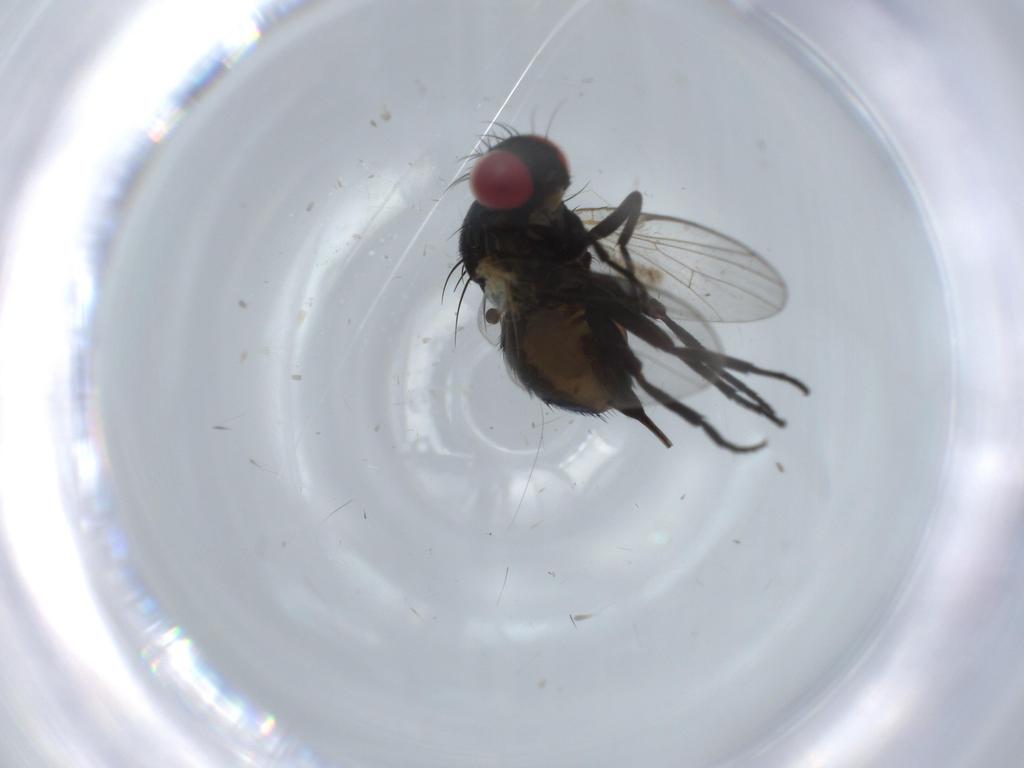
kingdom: Animalia
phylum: Arthropoda
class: Insecta
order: Diptera
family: Agromyzidae
